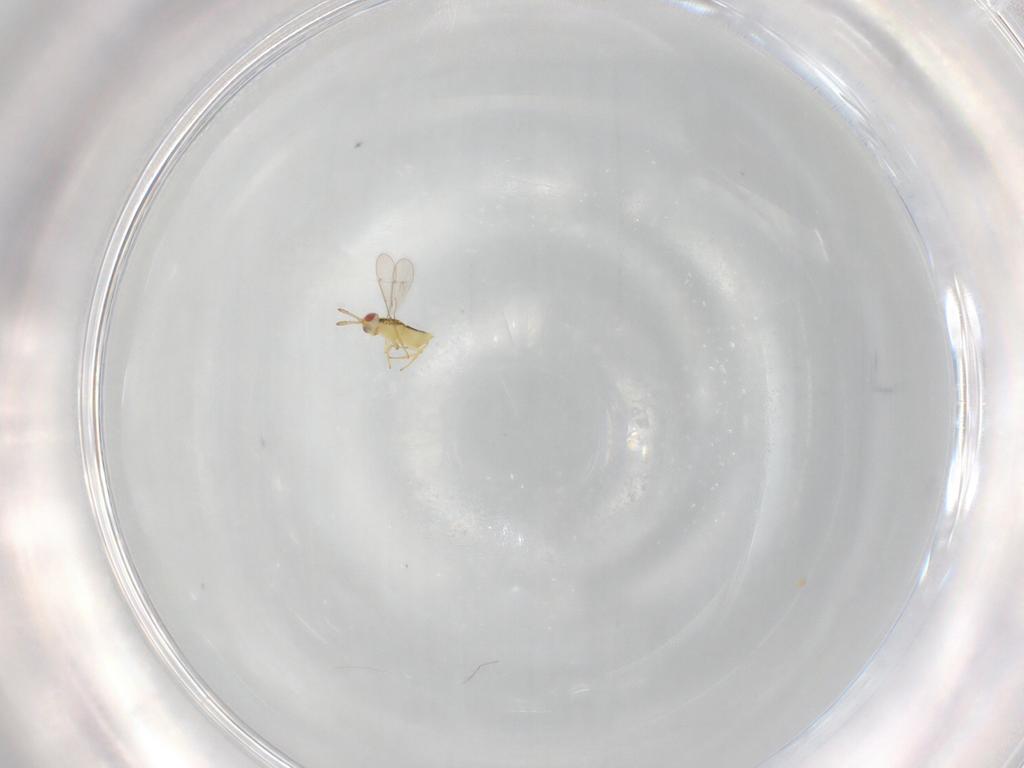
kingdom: Animalia
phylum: Arthropoda
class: Insecta
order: Hymenoptera
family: Aphelinidae
